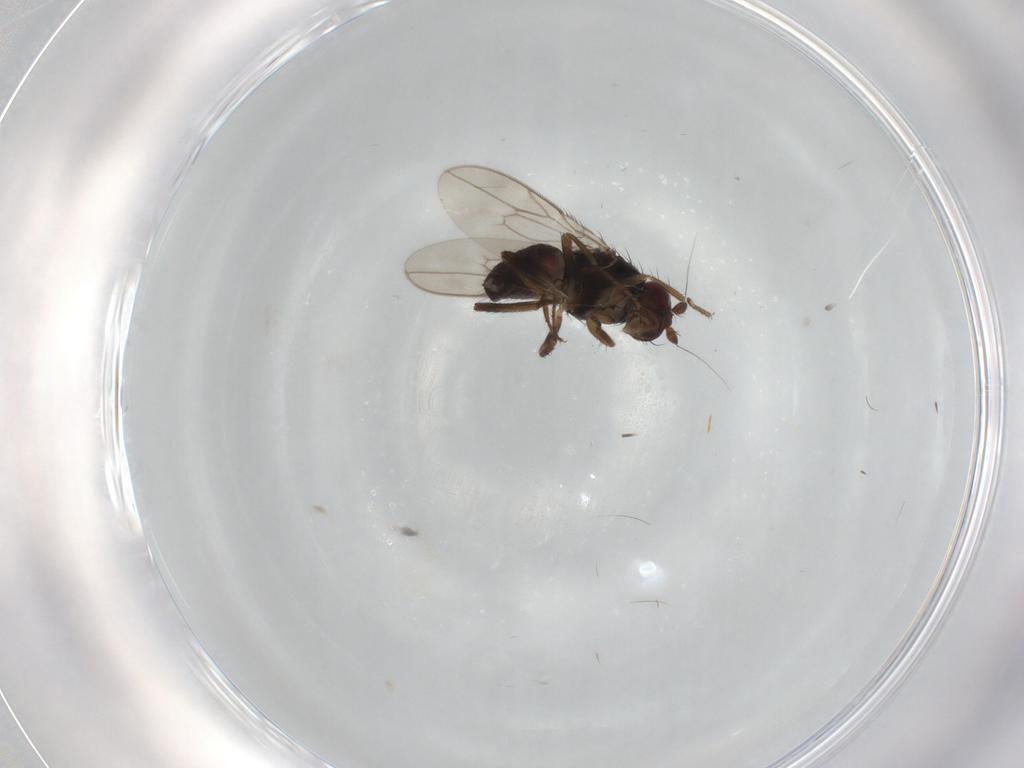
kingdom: Animalia
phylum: Arthropoda
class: Insecta
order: Diptera
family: Sphaeroceridae
